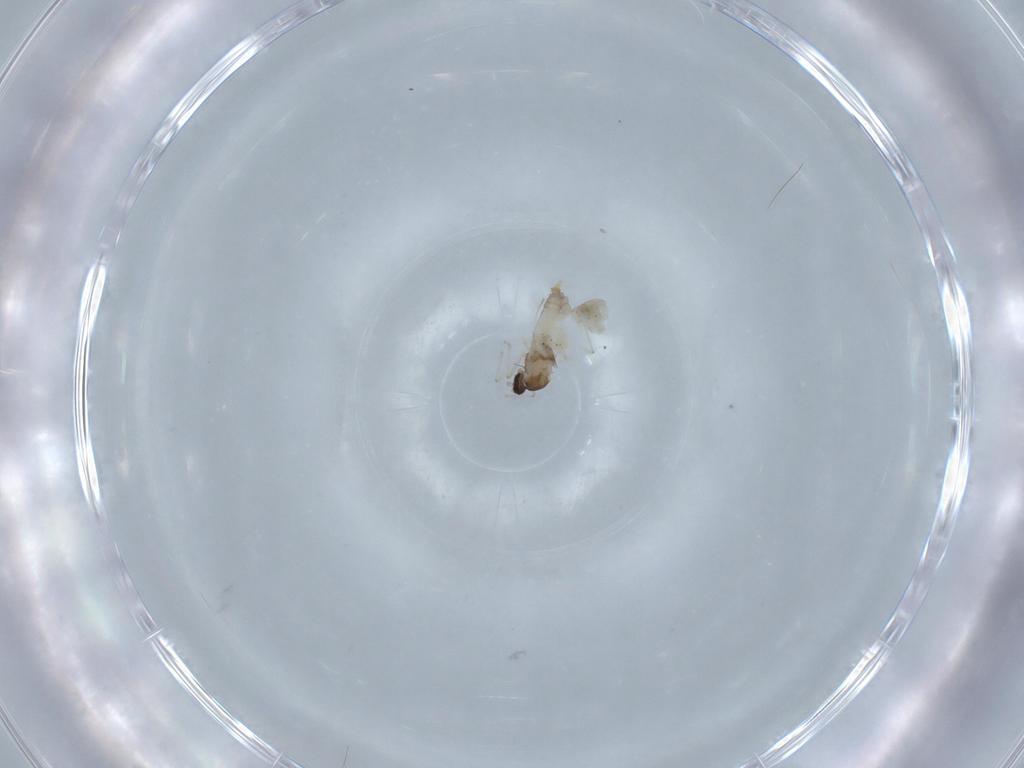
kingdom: Animalia
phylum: Arthropoda
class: Insecta
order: Diptera
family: Cecidomyiidae
